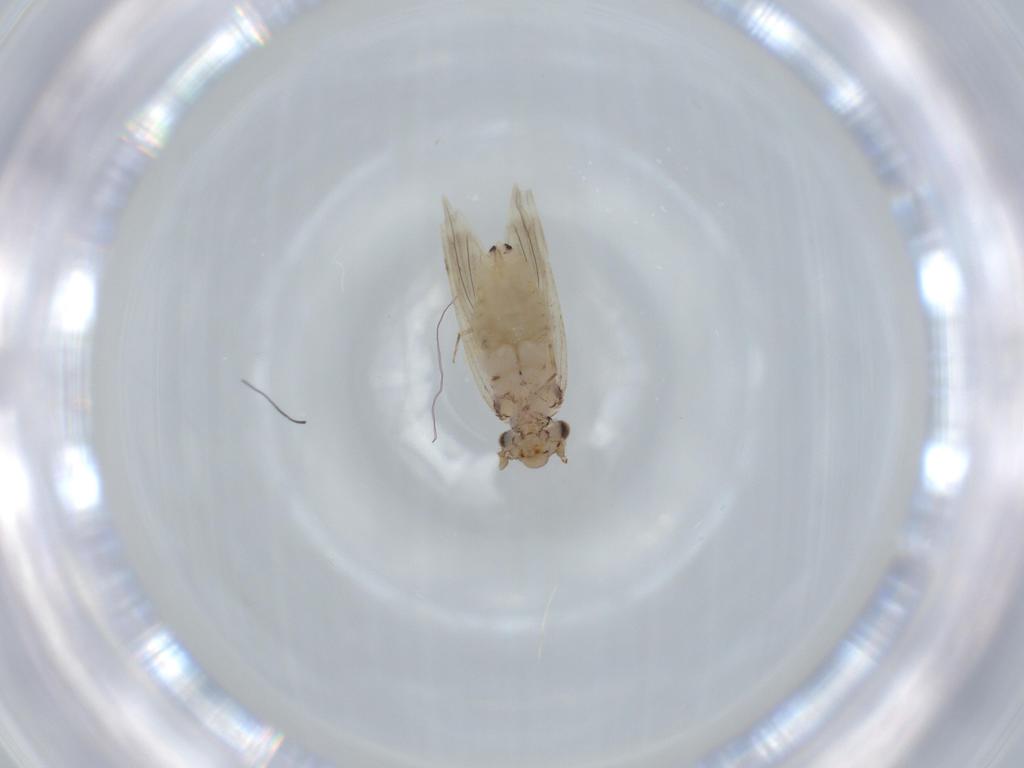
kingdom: Animalia
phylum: Arthropoda
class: Insecta
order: Psocodea
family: Lepidopsocidae
